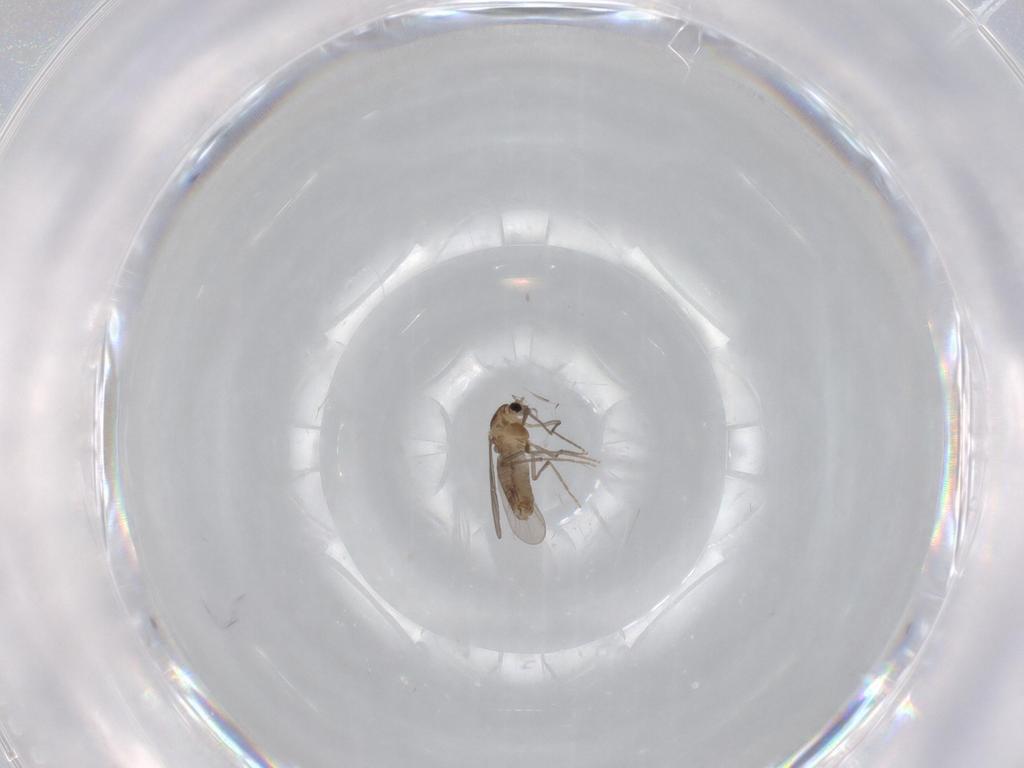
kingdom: Animalia
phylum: Arthropoda
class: Insecta
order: Diptera
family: Chironomidae
